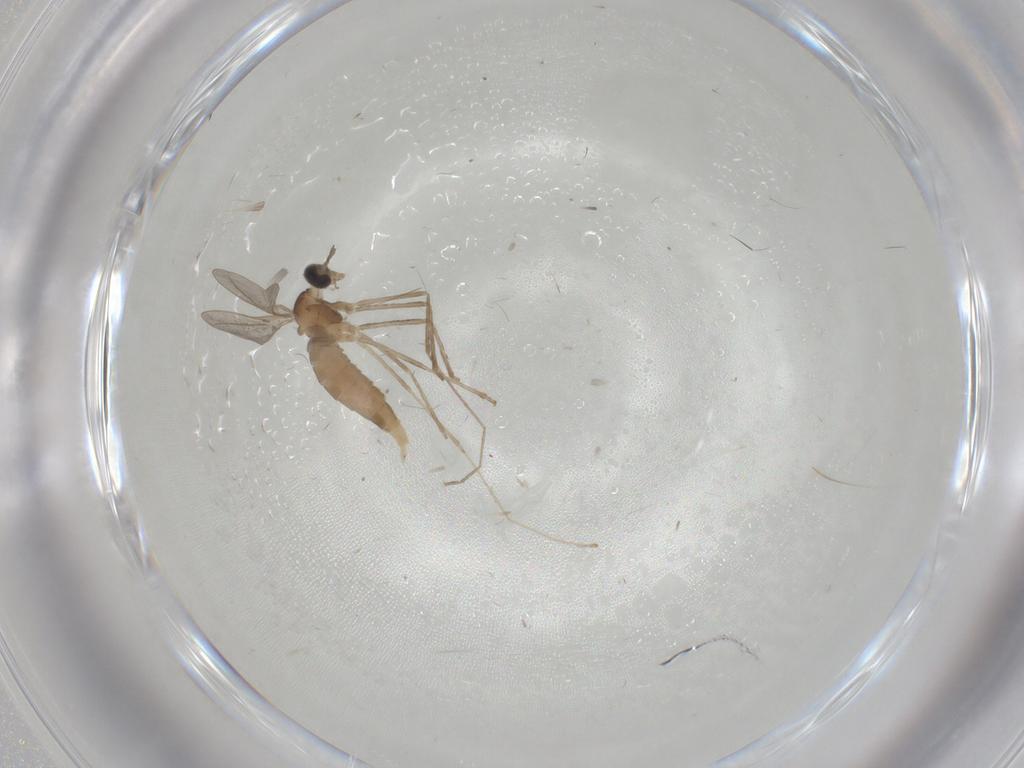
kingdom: Animalia
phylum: Arthropoda
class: Insecta
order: Diptera
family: Cecidomyiidae
